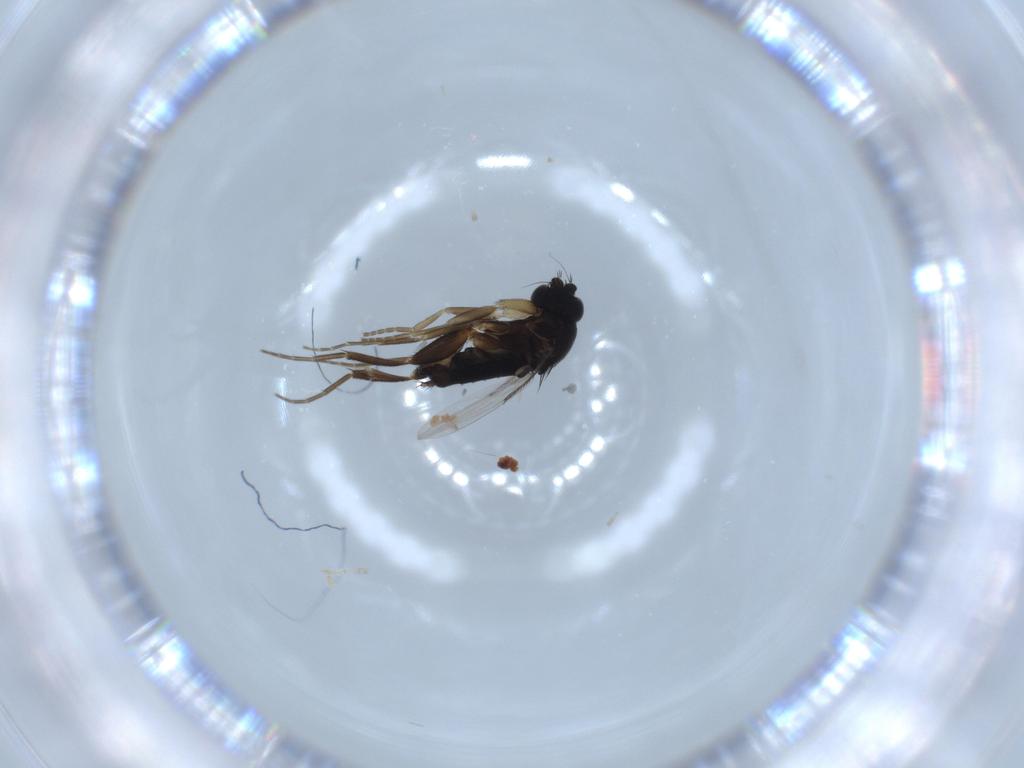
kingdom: Animalia
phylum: Arthropoda
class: Insecta
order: Diptera
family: Phoridae
